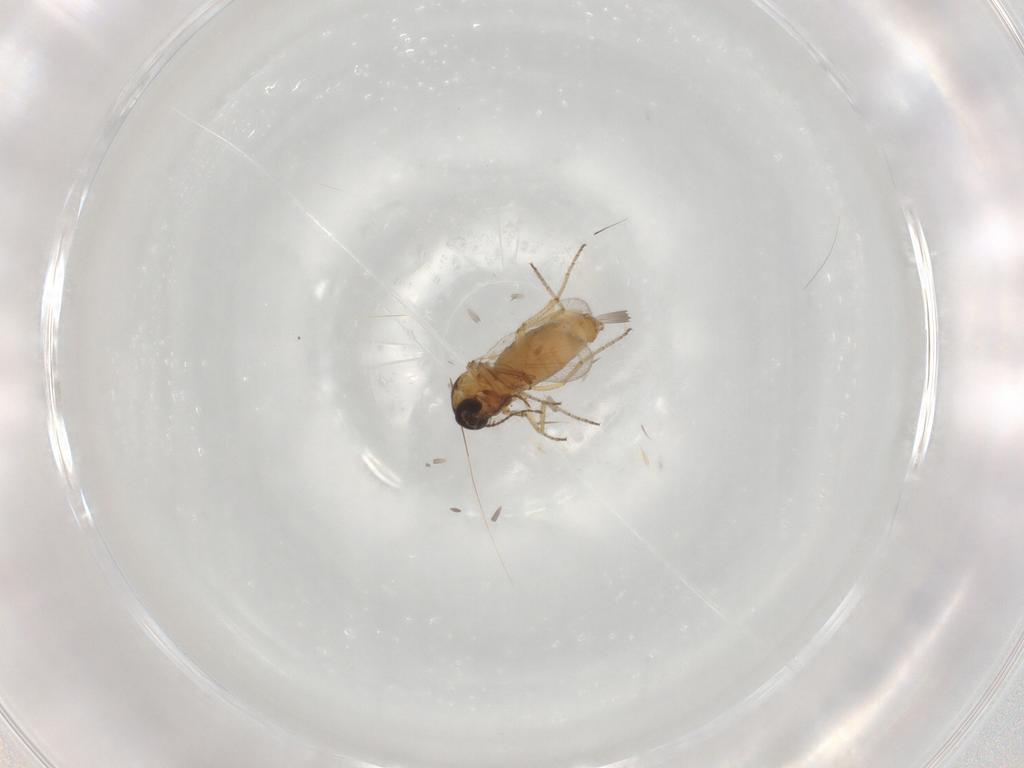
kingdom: Animalia
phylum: Arthropoda
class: Insecta
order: Diptera
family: Ceratopogonidae
